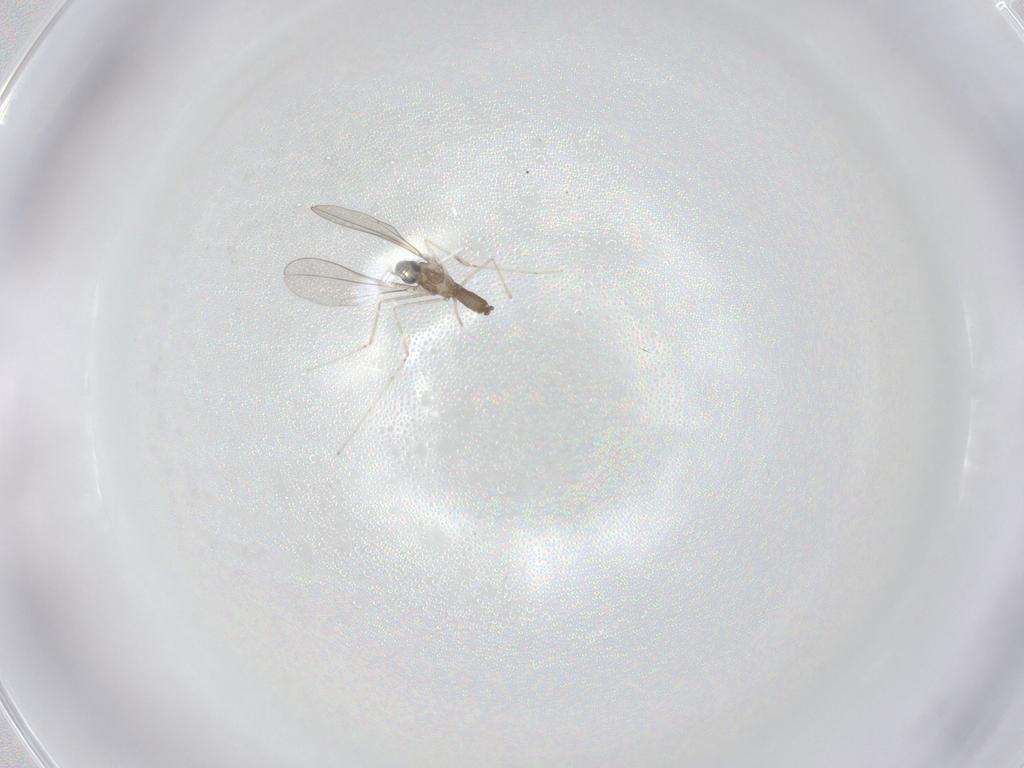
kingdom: Animalia
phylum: Arthropoda
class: Insecta
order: Diptera
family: Cecidomyiidae
